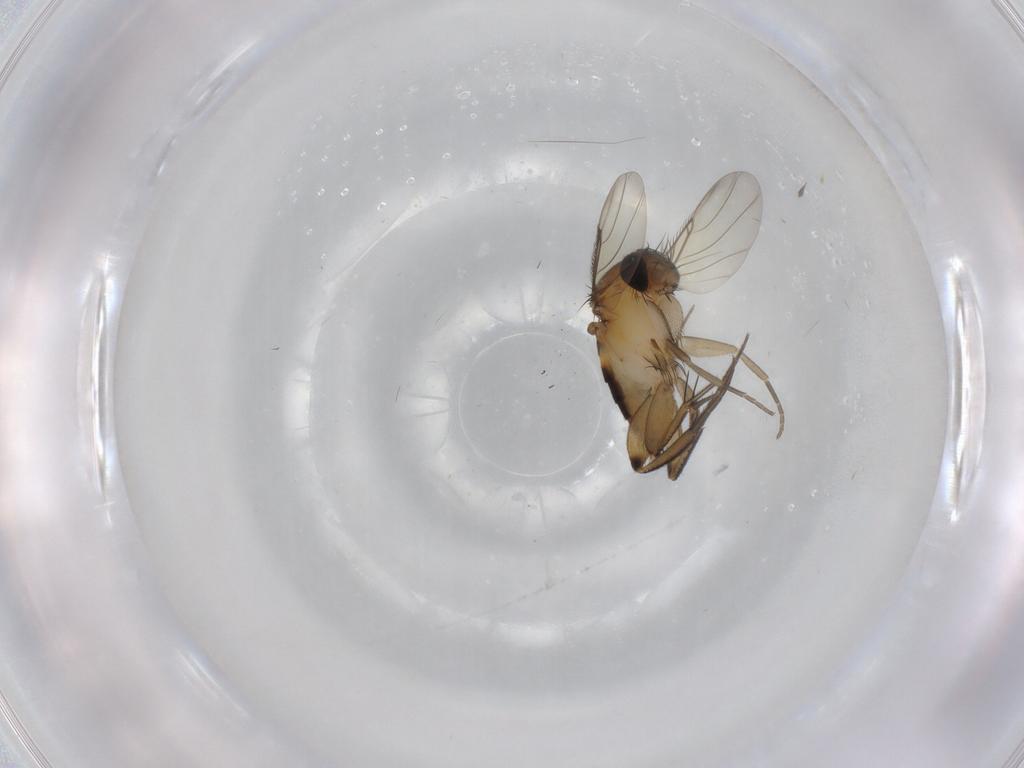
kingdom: Animalia
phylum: Arthropoda
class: Insecta
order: Diptera
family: Phoridae
